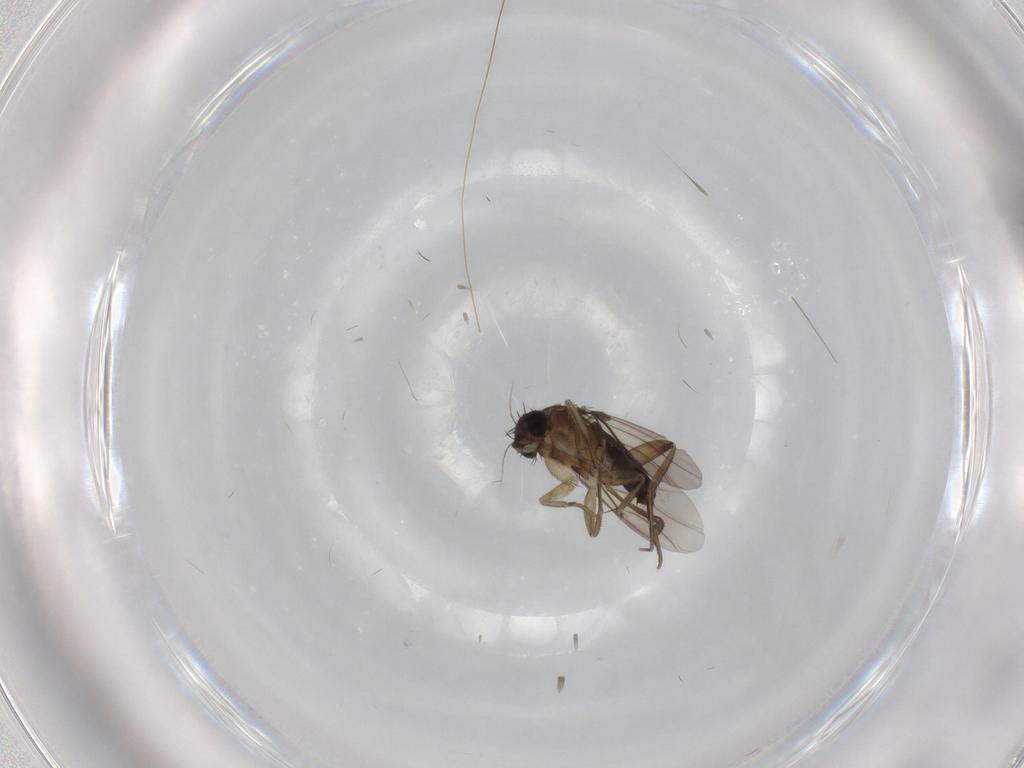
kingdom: Animalia
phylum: Arthropoda
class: Insecta
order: Diptera
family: Phoridae
